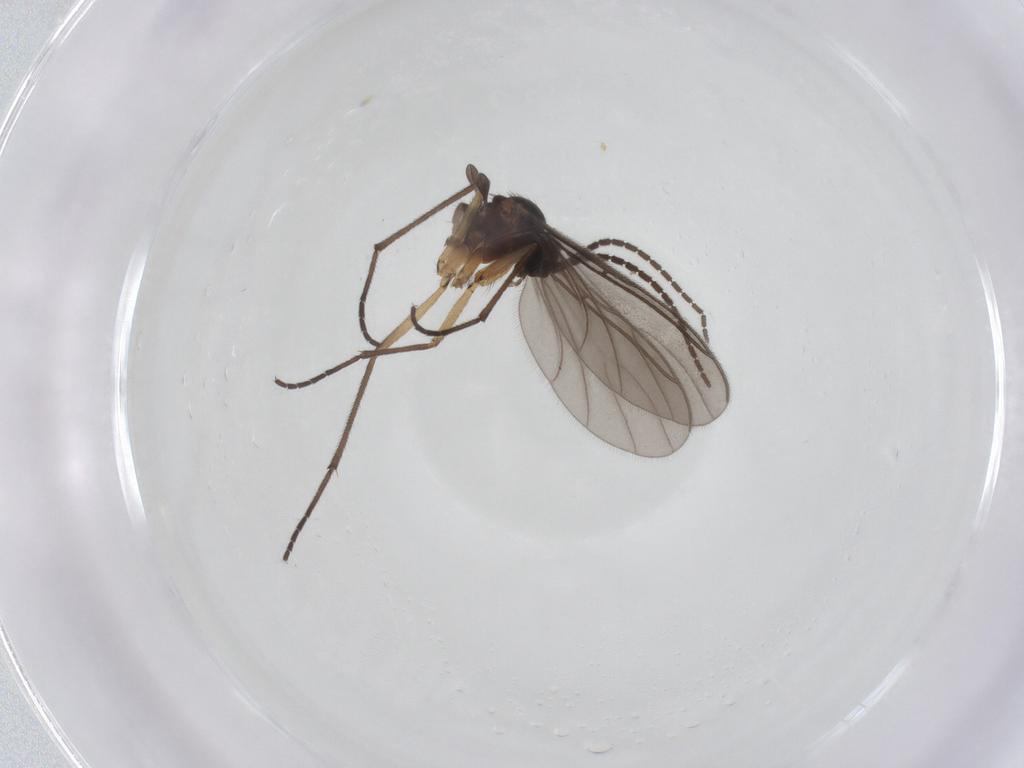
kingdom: Animalia
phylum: Arthropoda
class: Insecta
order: Diptera
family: Sciaridae
